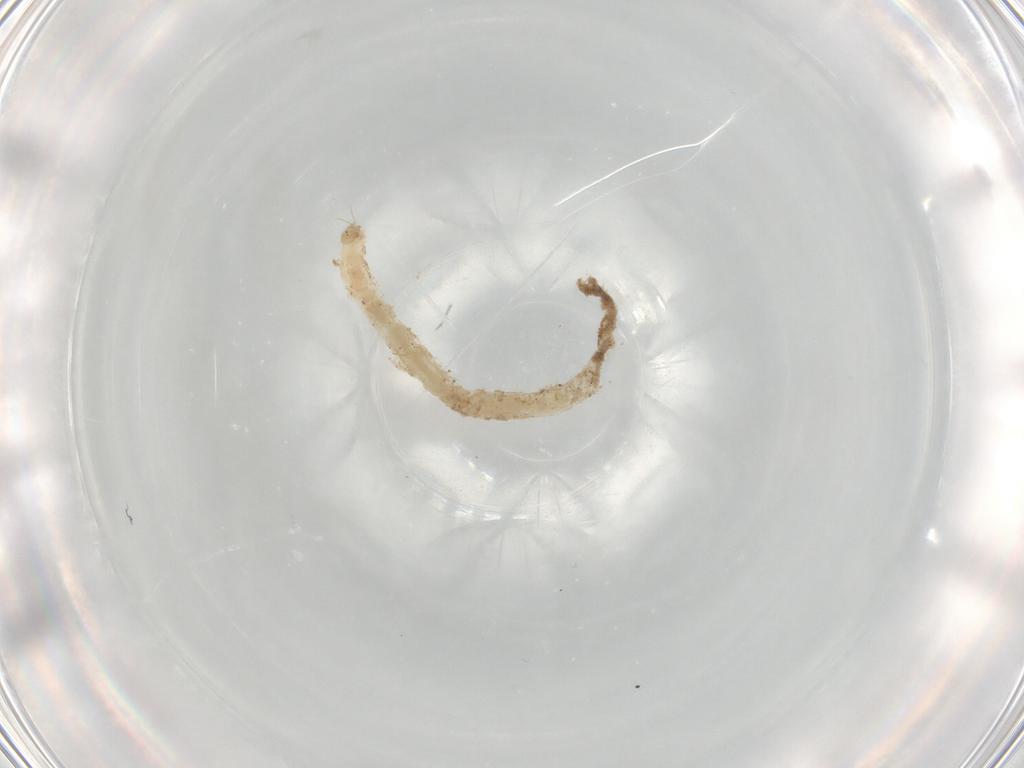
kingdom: Animalia
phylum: Arthropoda
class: Insecta
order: Diptera
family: Chironomidae
